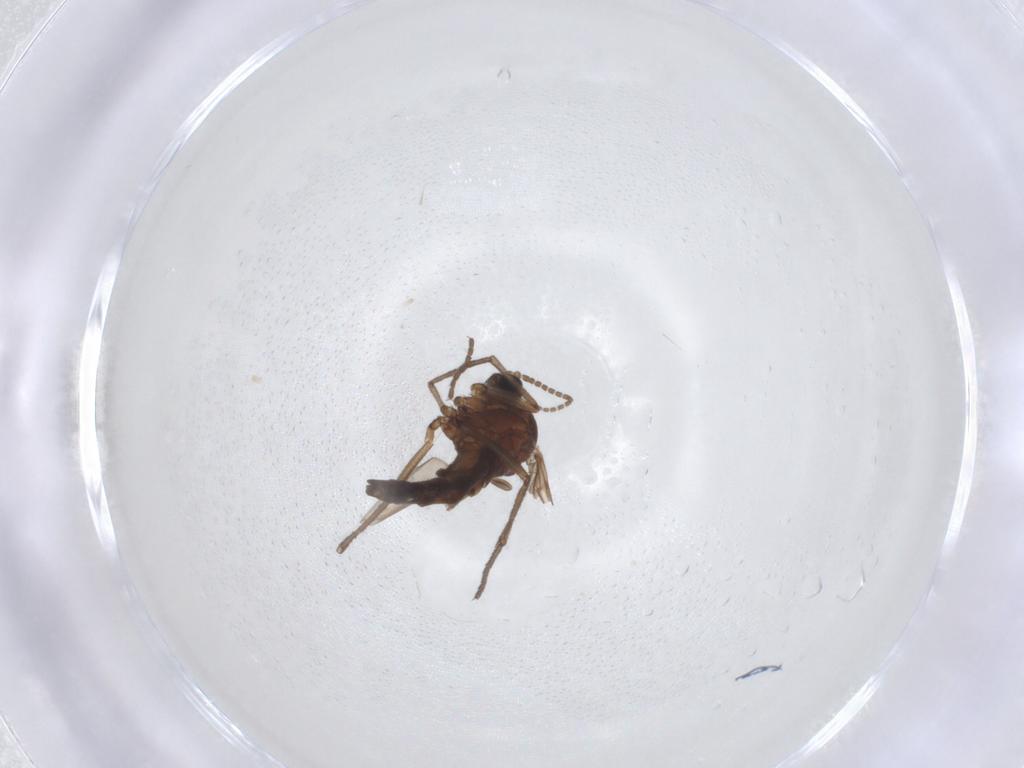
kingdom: Animalia
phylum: Arthropoda
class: Insecta
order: Diptera
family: Sciaridae
